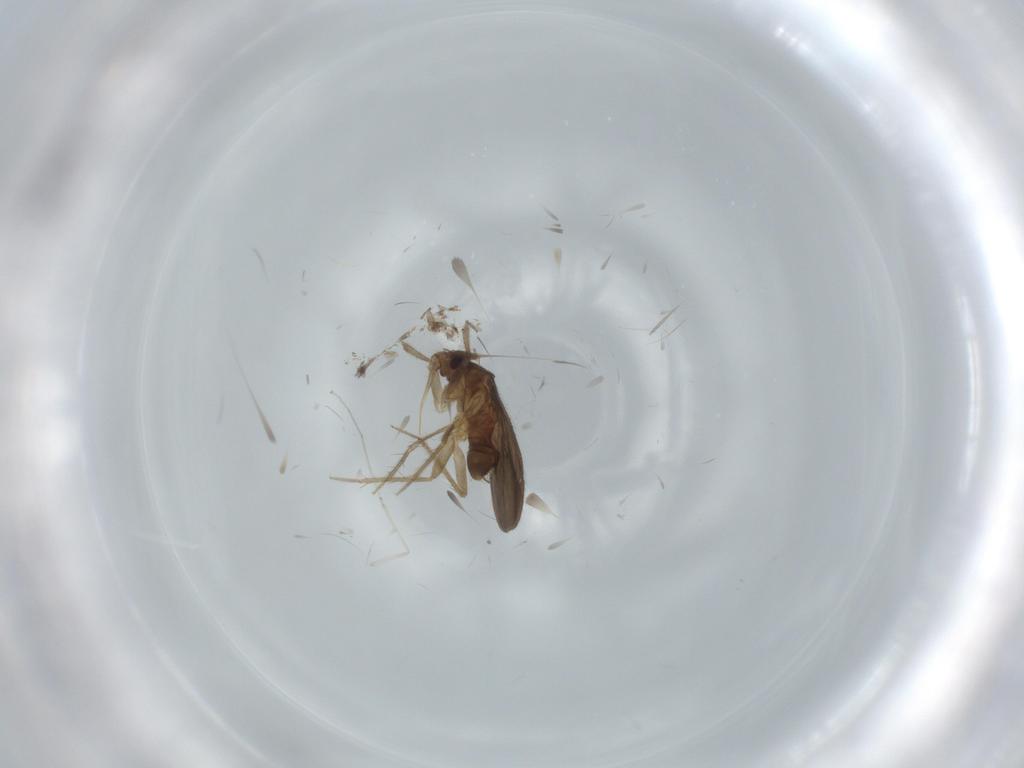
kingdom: Animalia
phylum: Arthropoda
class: Insecta
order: Hemiptera
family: Ceratocombidae
